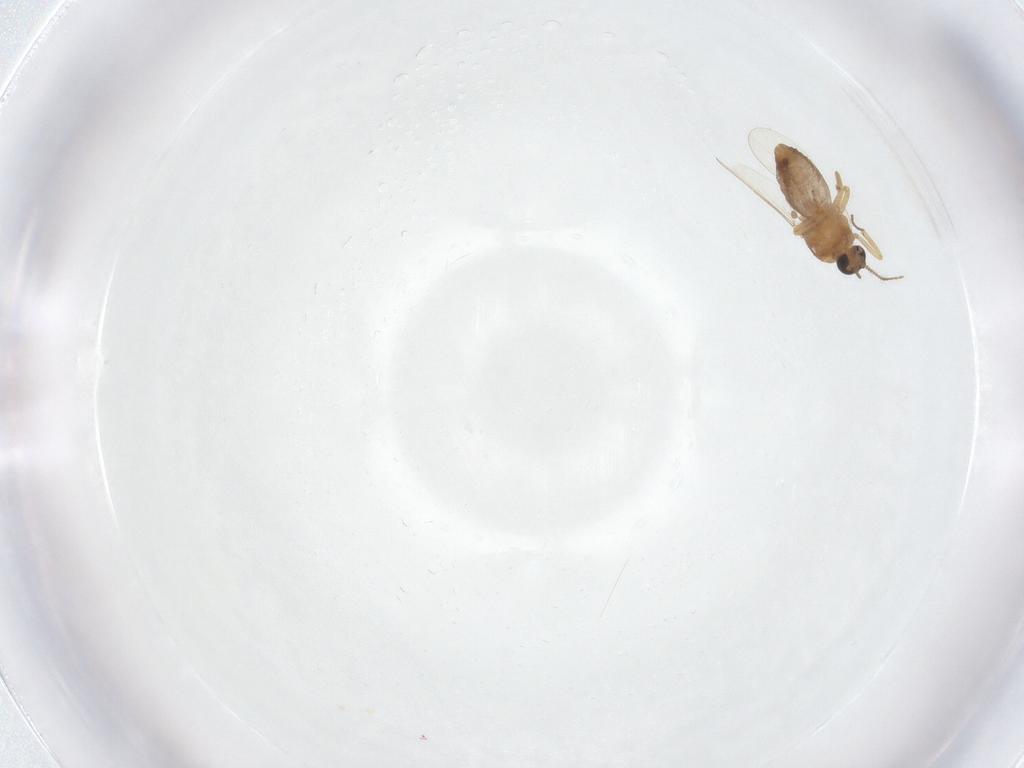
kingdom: Animalia
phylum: Arthropoda
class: Insecta
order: Diptera
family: Ceratopogonidae
